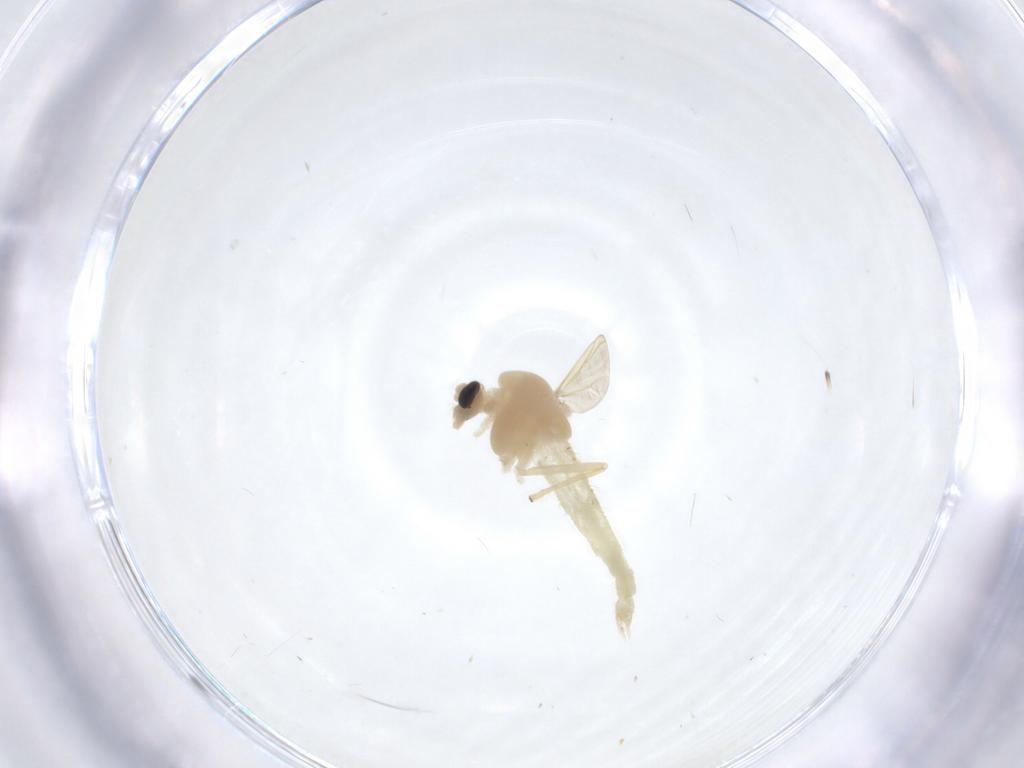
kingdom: Animalia
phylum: Arthropoda
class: Insecta
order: Diptera
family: Chironomidae
